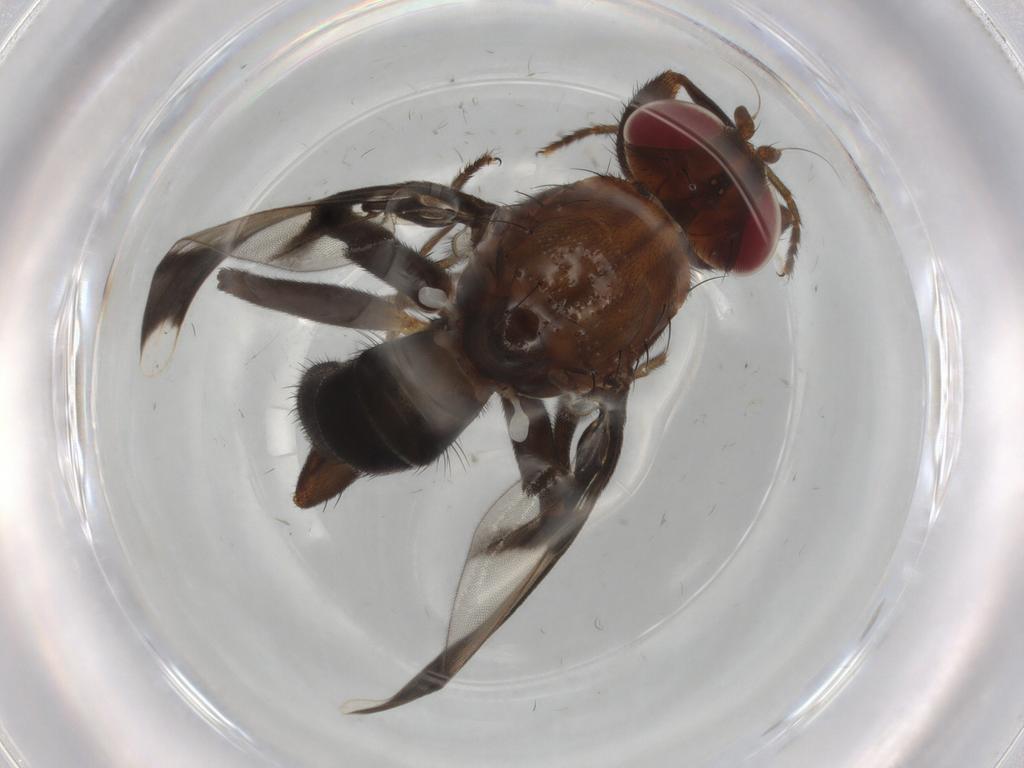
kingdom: Animalia
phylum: Arthropoda
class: Insecta
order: Diptera
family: Richardiidae
